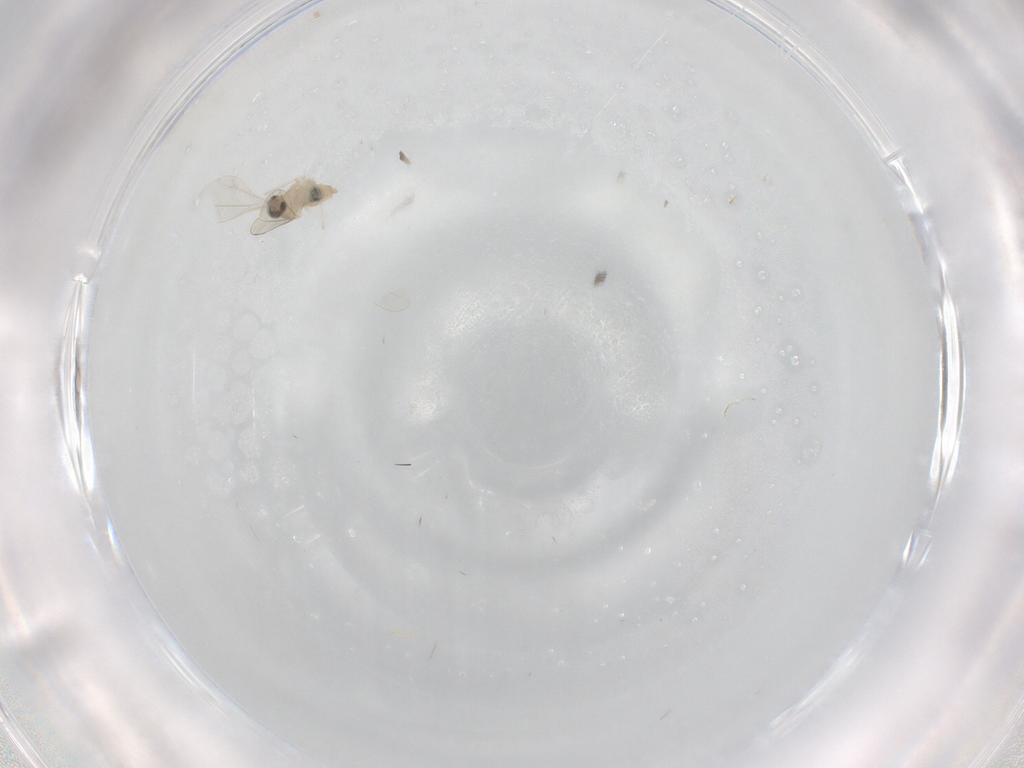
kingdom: Animalia
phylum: Arthropoda
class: Insecta
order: Diptera
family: Cecidomyiidae
